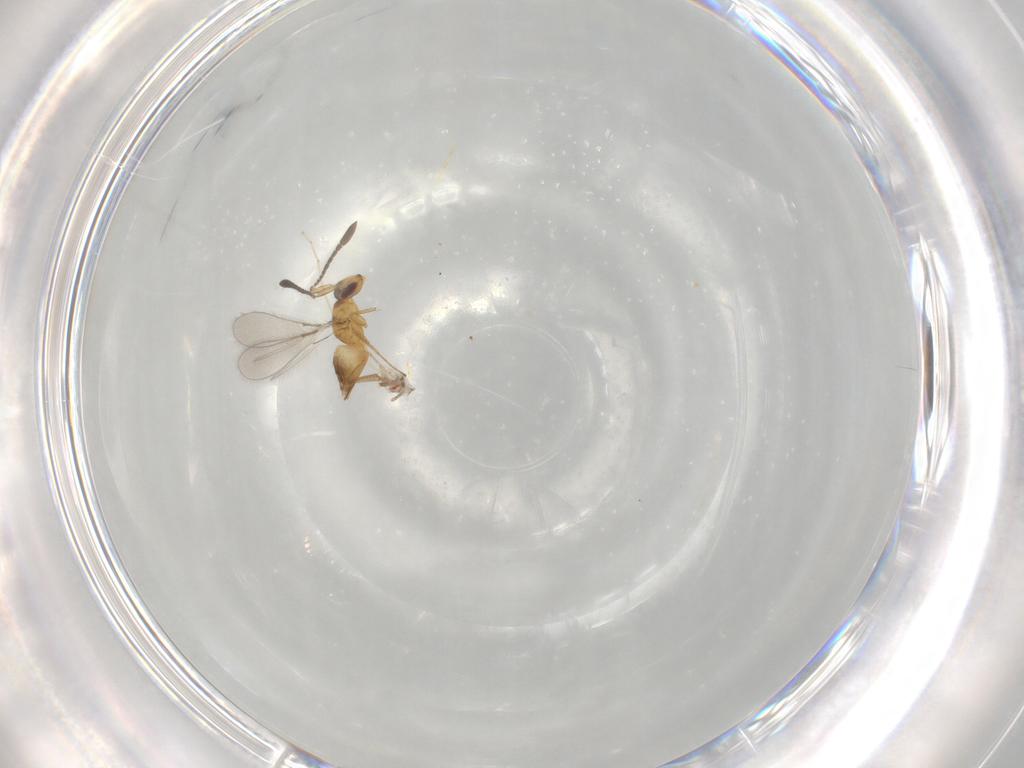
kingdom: Animalia
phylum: Arthropoda
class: Insecta
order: Hymenoptera
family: Mymaridae
